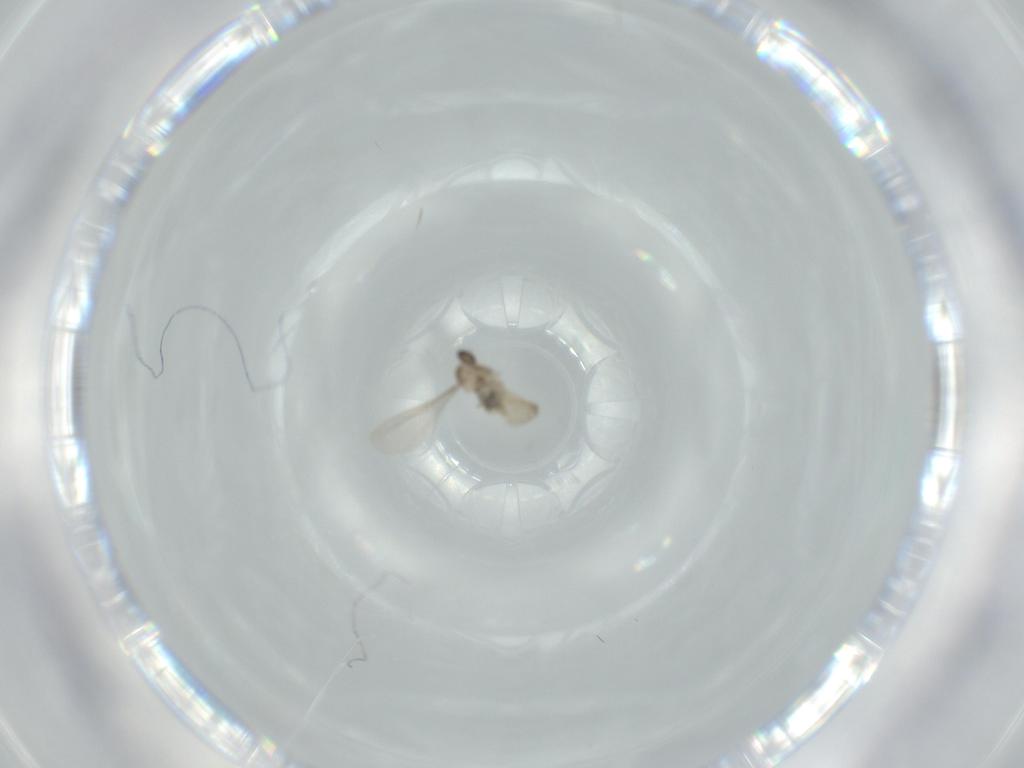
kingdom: Animalia
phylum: Arthropoda
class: Insecta
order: Diptera
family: Cecidomyiidae
